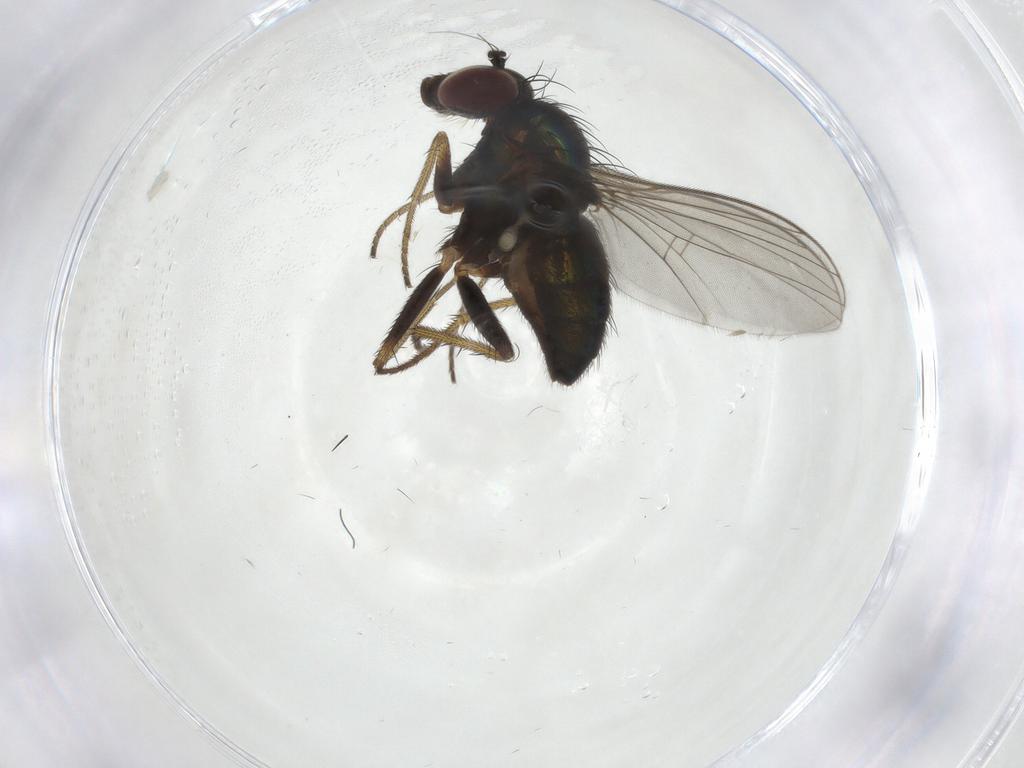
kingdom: Animalia
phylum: Arthropoda
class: Insecta
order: Diptera
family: Dolichopodidae
